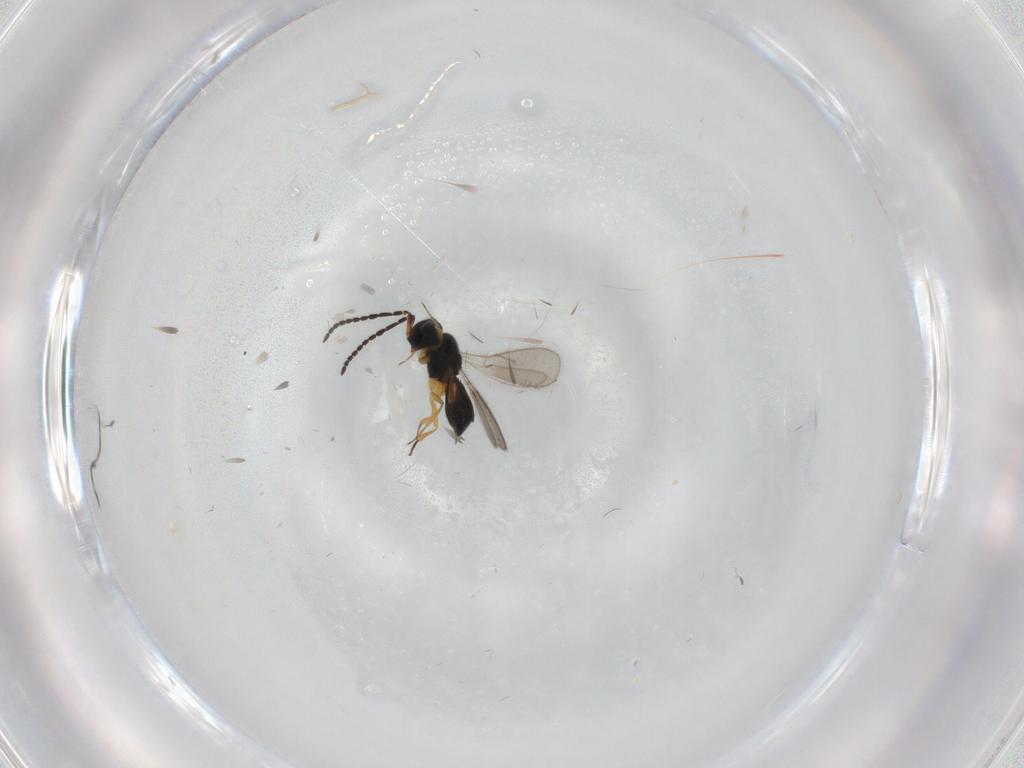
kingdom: Animalia
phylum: Arthropoda
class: Insecta
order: Hymenoptera
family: Scelionidae
